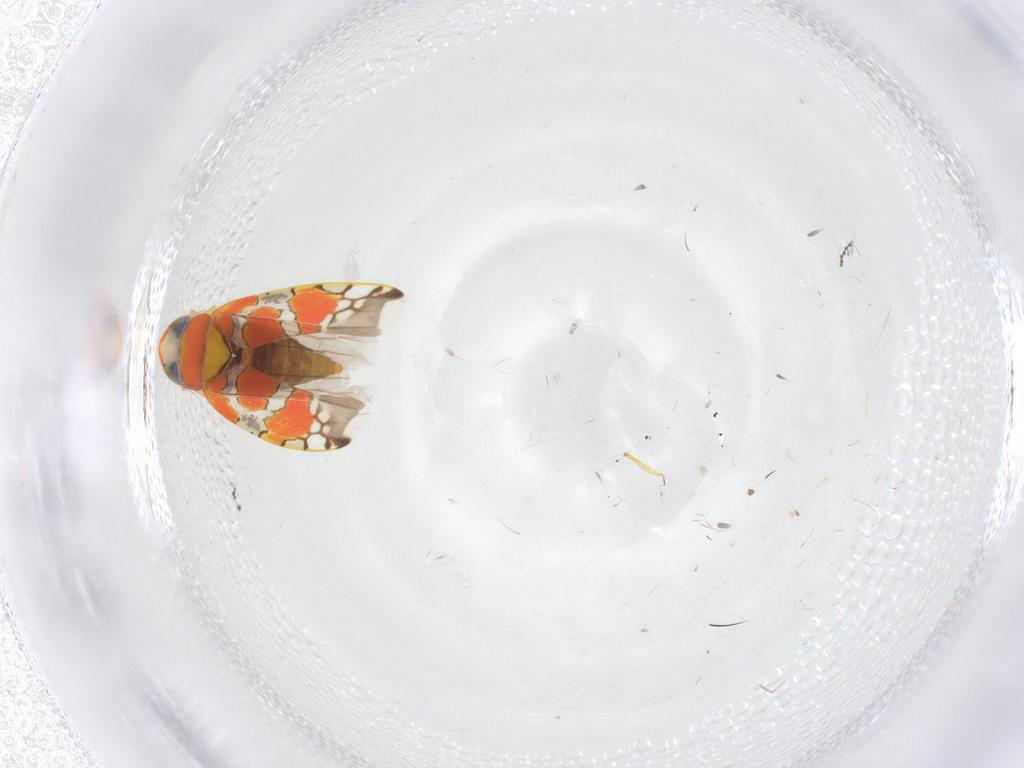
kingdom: Animalia
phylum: Arthropoda
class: Insecta
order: Hemiptera
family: Cicadellidae
